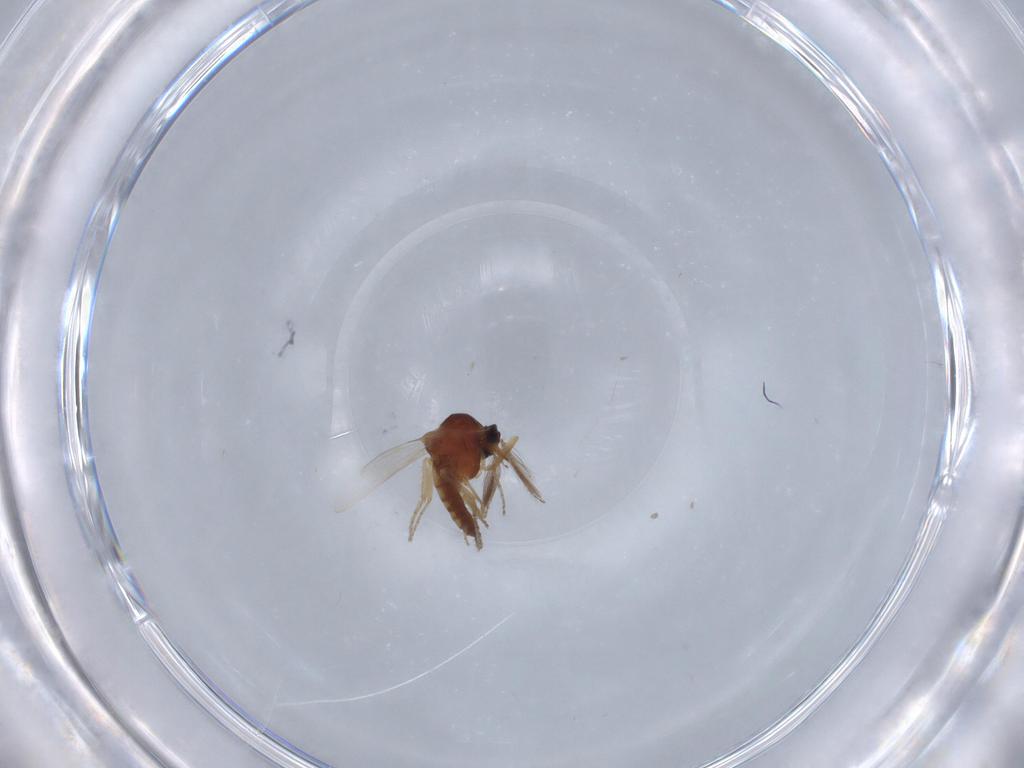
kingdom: Animalia
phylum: Arthropoda
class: Insecta
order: Diptera
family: Ceratopogonidae
